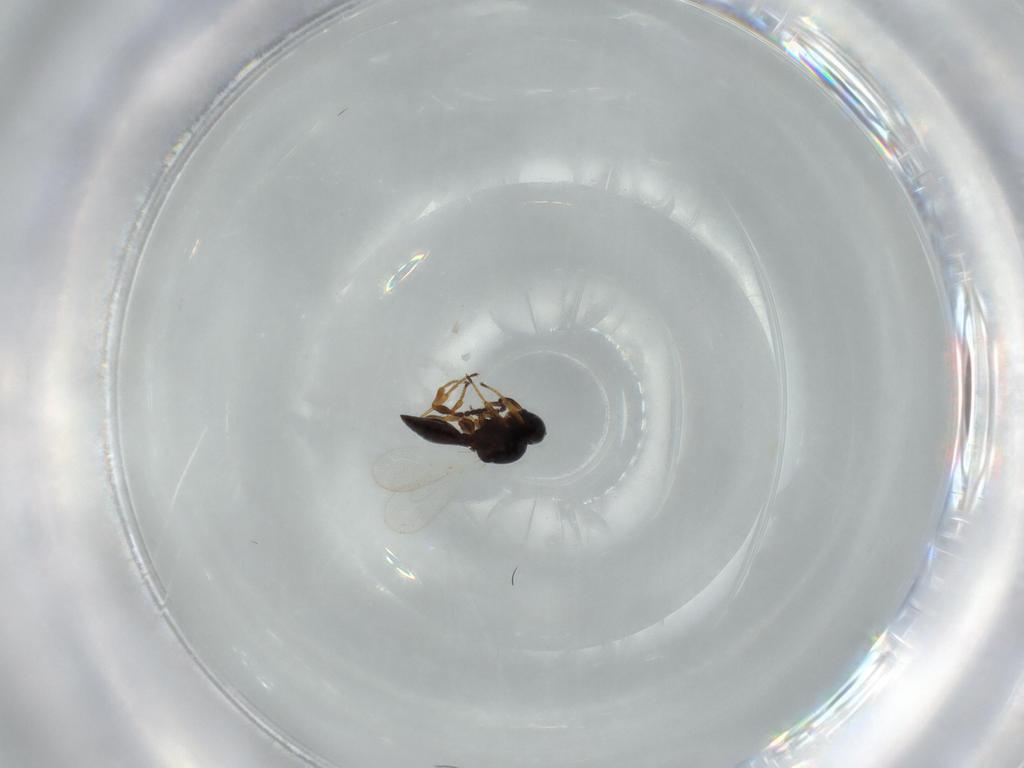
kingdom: Animalia
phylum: Arthropoda
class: Insecta
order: Hymenoptera
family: Platygastridae
